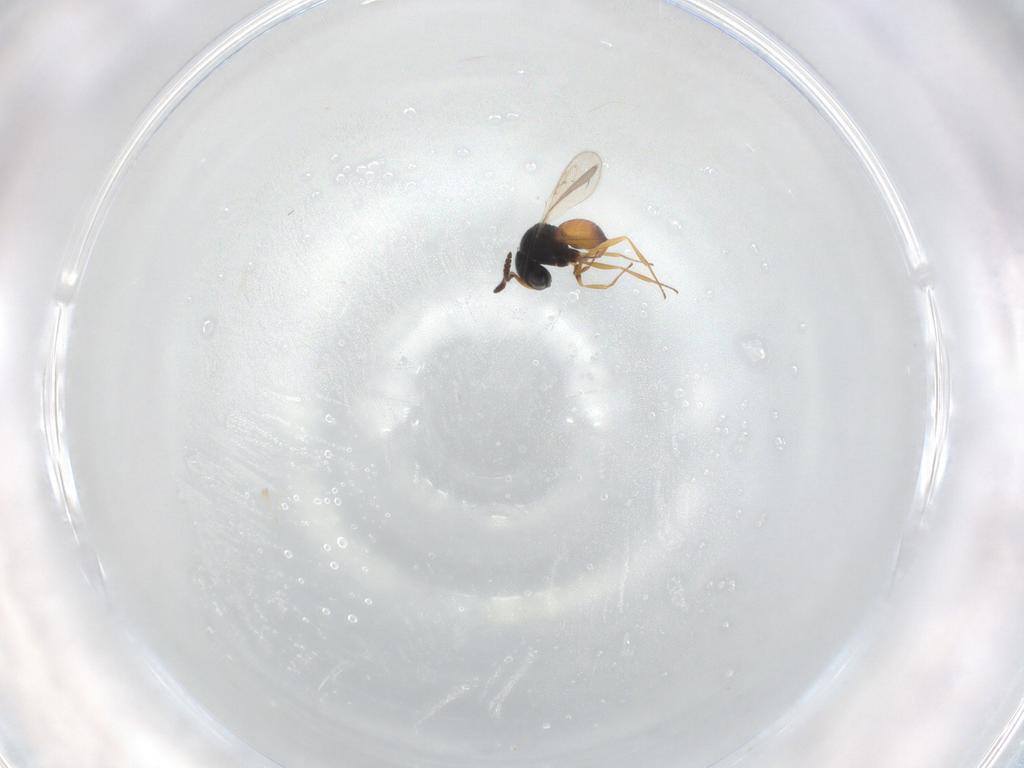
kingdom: Animalia
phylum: Arthropoda
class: Insecta
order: Hymenoptera
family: Scelionidae
